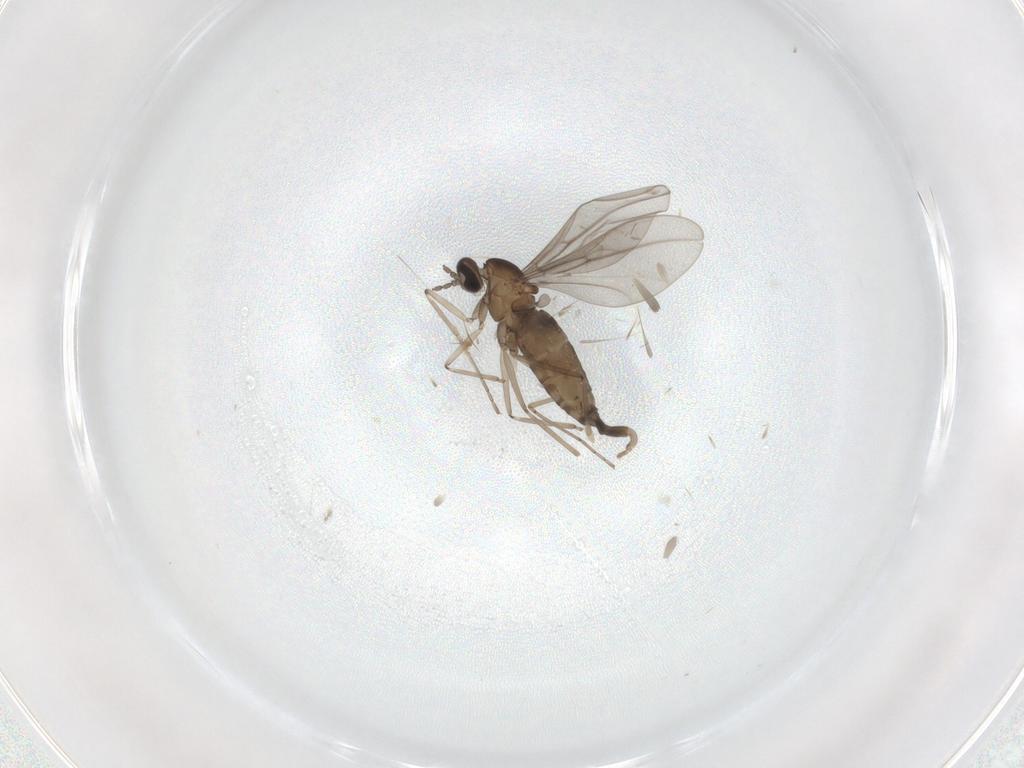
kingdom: Animalia
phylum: Arthropoda
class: Insecta
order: Diptera
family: Cecidomyiidae
